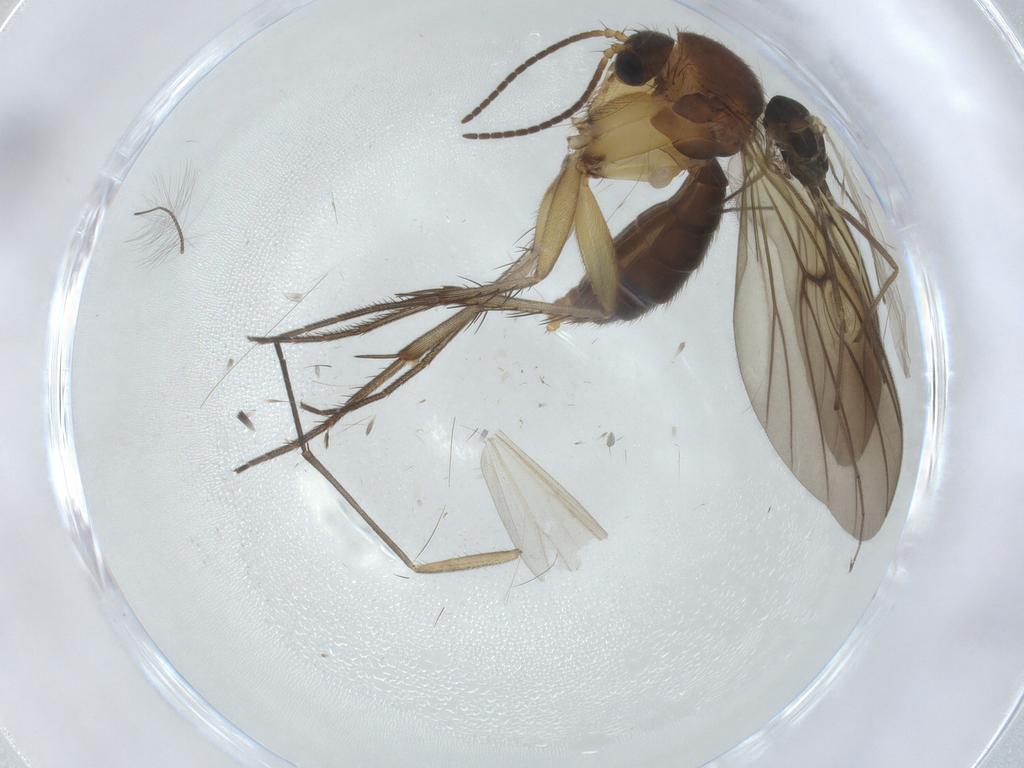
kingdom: Animalia
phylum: Arthropoda
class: Insecta
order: Diptera
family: Mycetophilidae
